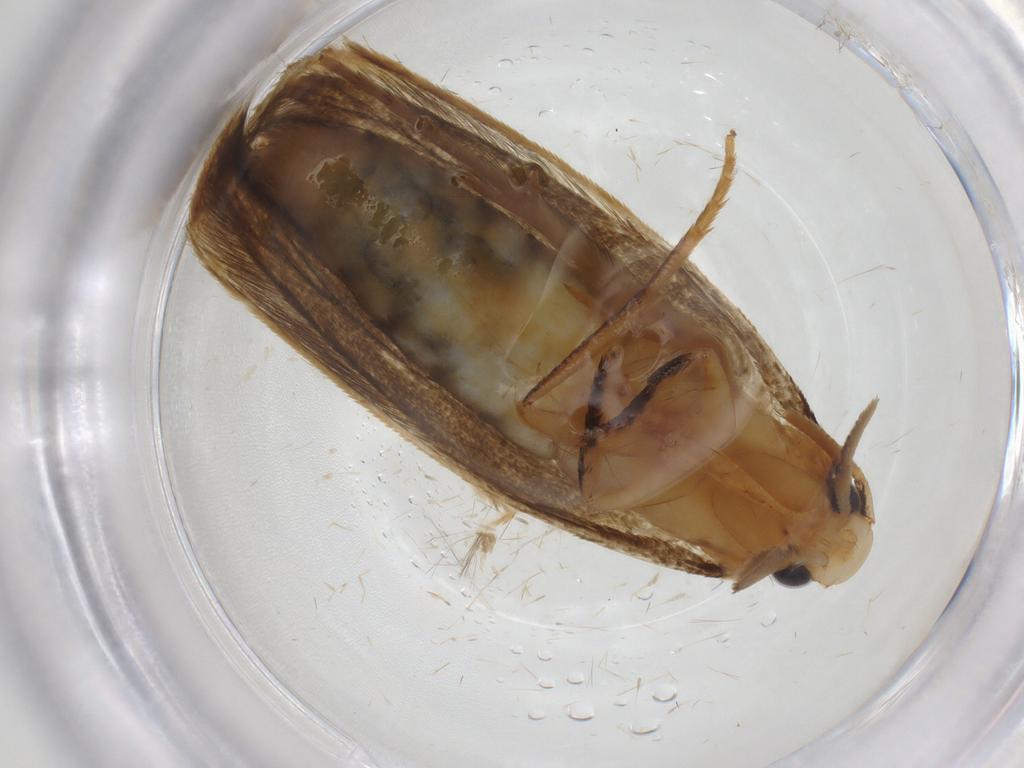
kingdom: Animalia
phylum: Arthropoda
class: Insecta
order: Lepidoptera
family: Tineidae
